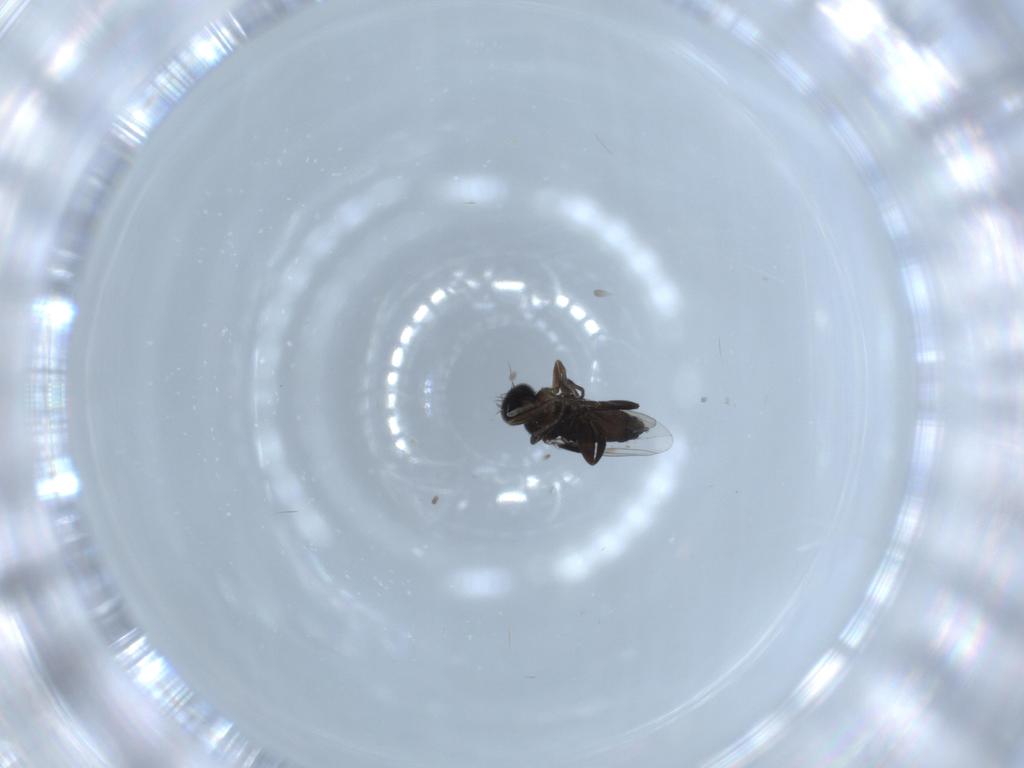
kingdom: Animalia
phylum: Arthropoda
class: Insecta
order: Diptera
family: Phoridae
